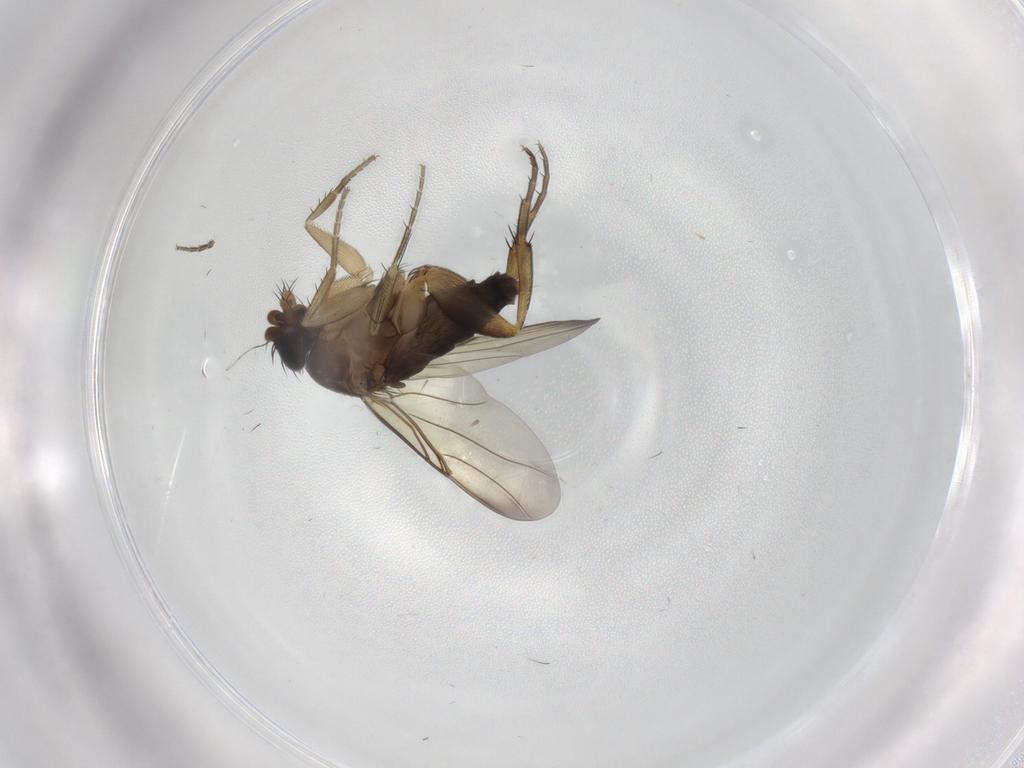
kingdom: Animalia
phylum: Arthropoda
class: Insecta
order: Diptera
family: Phoridae
